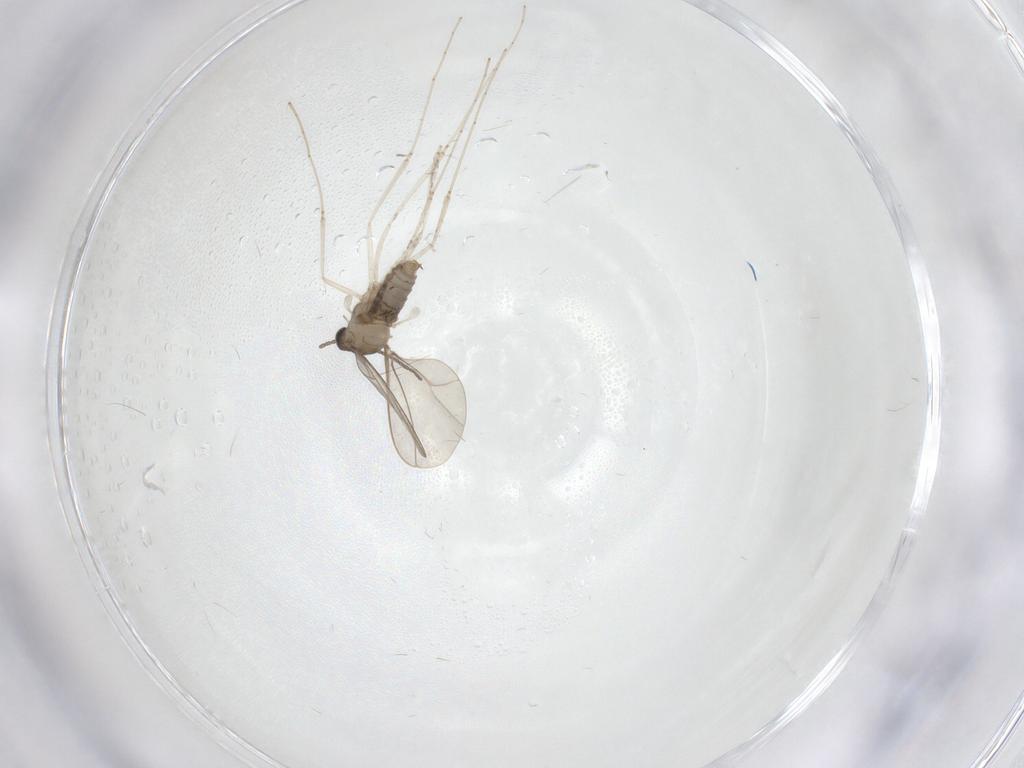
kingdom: Animalia
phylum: Arthropoda
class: Insecta
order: Diptera
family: Cecidomyiidae
